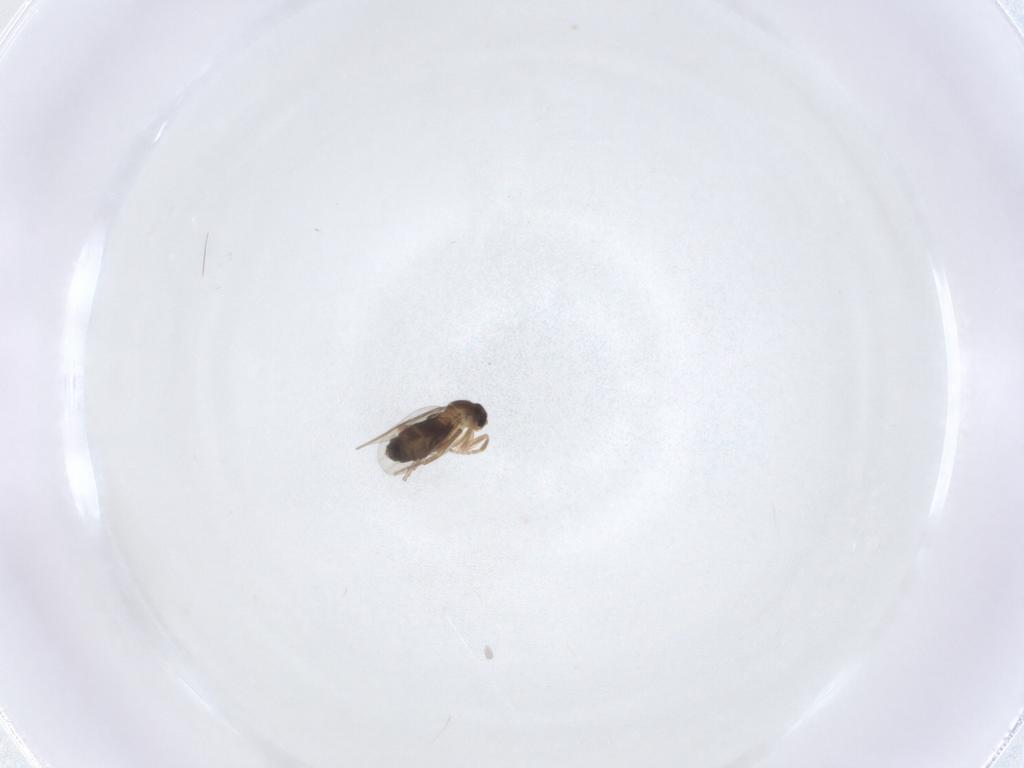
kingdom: Animalia
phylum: Arthropoda
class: Insecta
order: Diptera
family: Phoridae
